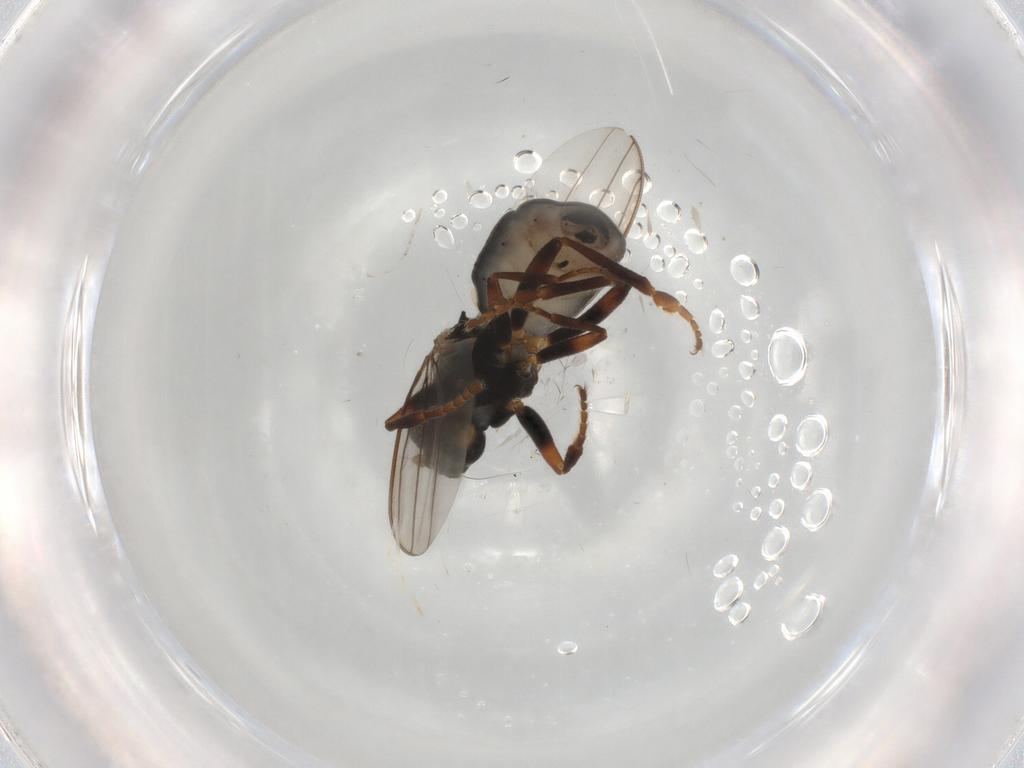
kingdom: Animalia
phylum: Arthropoda
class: Insecta
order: Diptera
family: Sphaeroceridae
